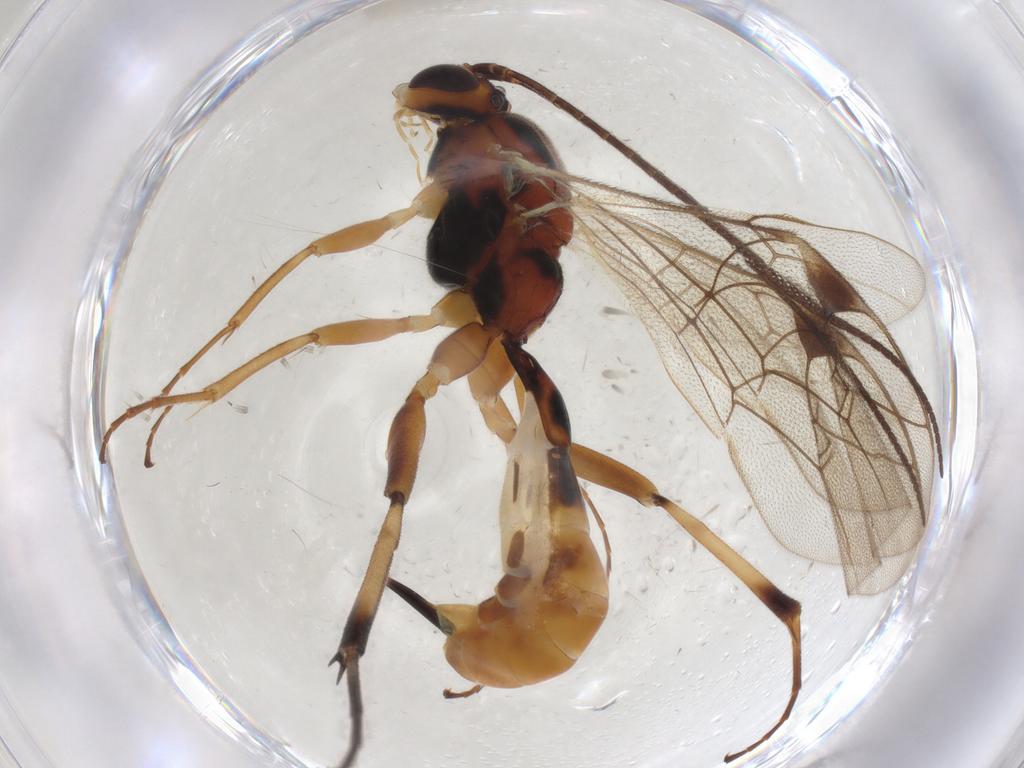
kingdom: Animalia
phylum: Arthropoda
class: Insecta
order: Hymenoptera
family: Ichneumonidae
